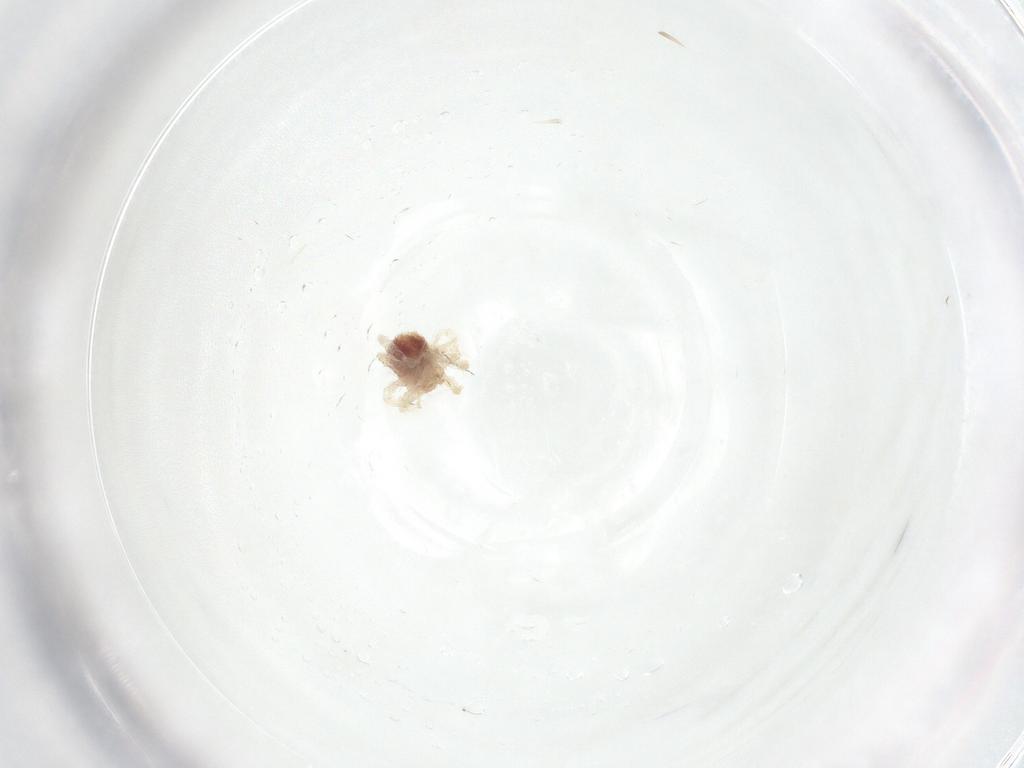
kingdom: Animalia
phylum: Arthropoda
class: Arachnida
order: Trombidiformes
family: Anystidae
